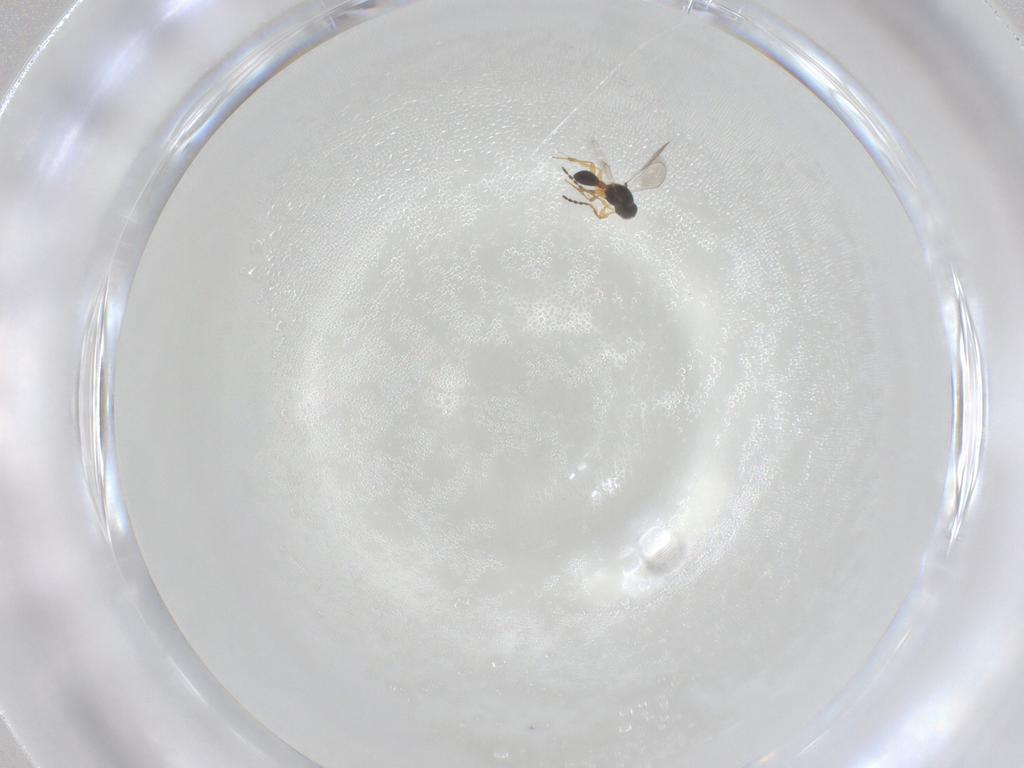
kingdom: Animalia
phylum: Arthropoda
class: Insecta
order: Hymenoptera
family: Platygastridae
